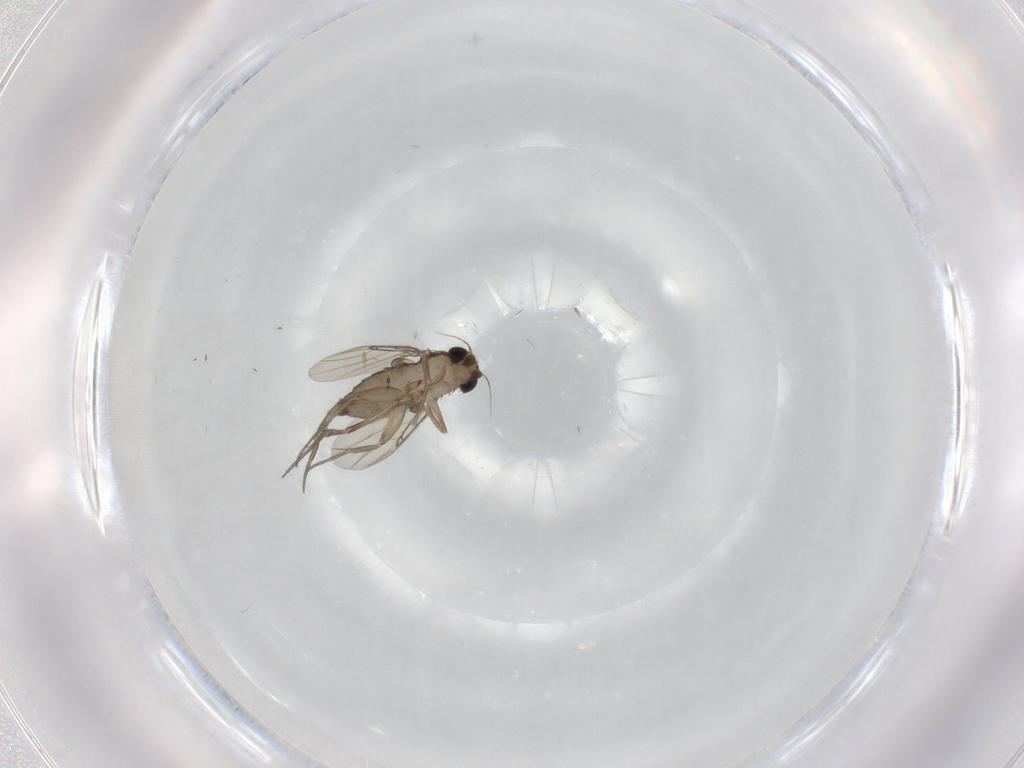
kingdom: Animalia
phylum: Arthropoda
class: Insecta
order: Diptera
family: Phoridae
